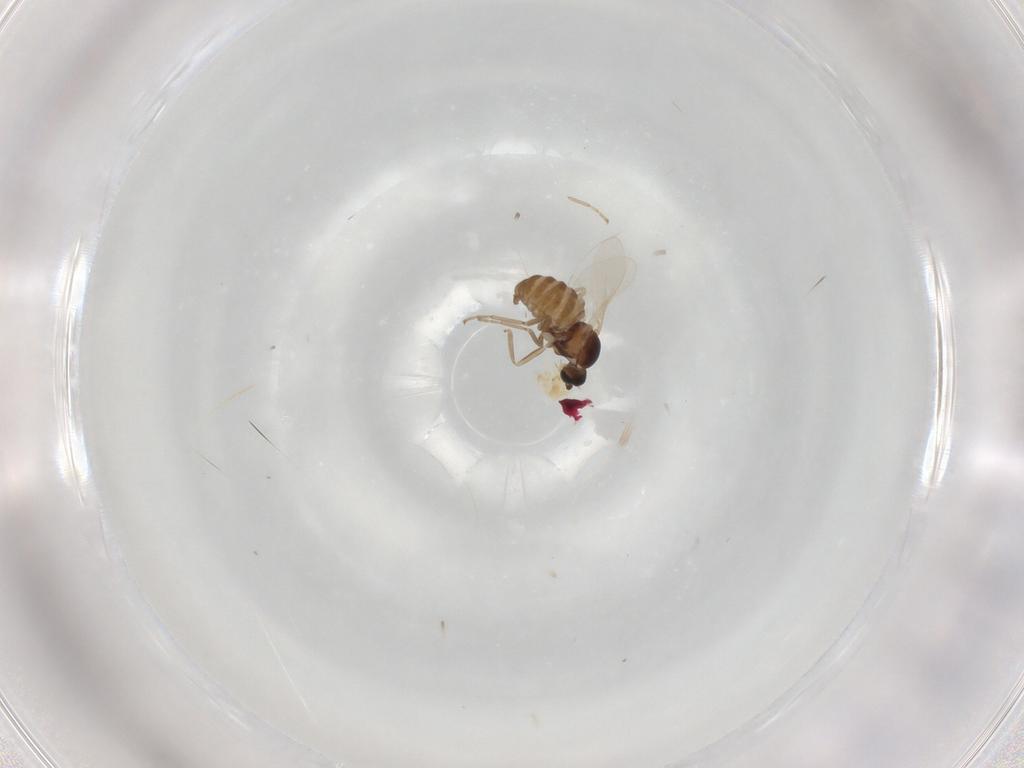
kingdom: Animalia
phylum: Arthropoda
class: Insecta
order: Diptera
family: Cecidomyiidae
